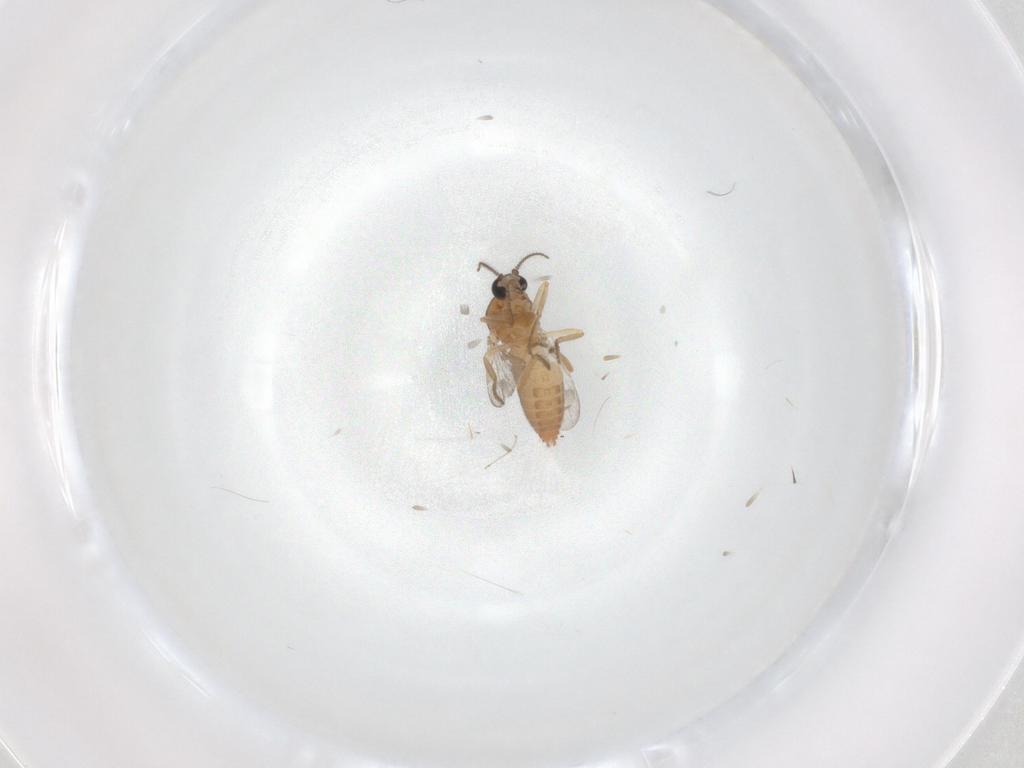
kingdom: Animalia
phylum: Arthropoda
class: Insecta
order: Diptera
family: Ceratopogonidae
